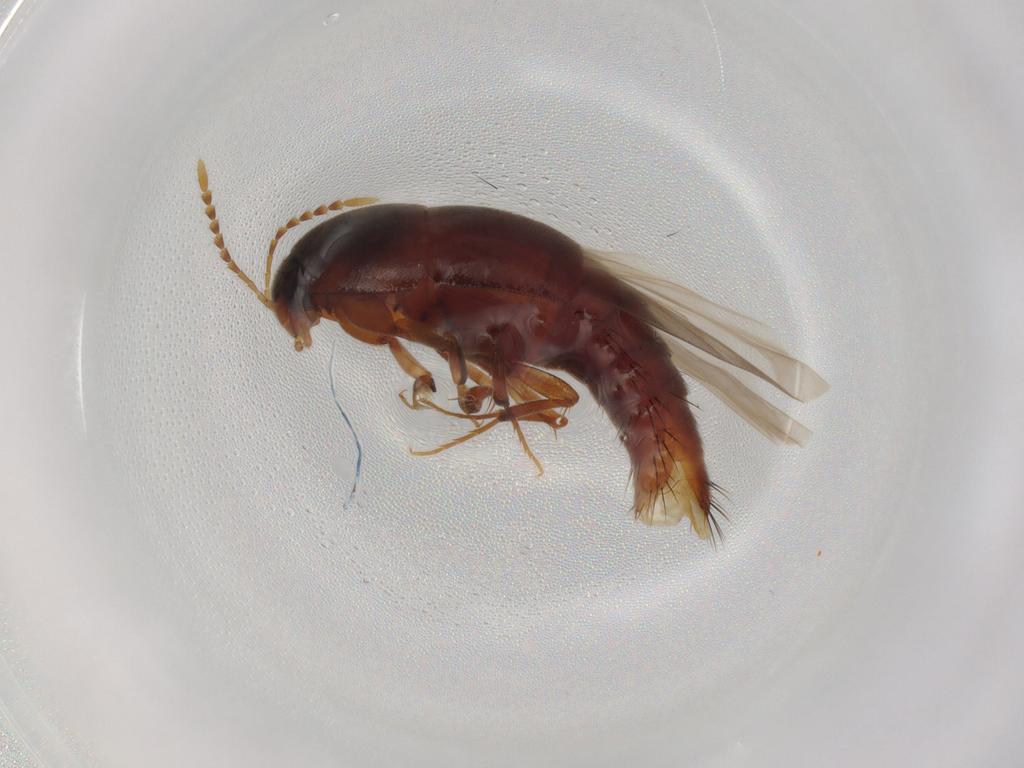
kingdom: Animalia
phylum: Arthropoda
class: Insecta
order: Coleoptera
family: Staphylinidae
